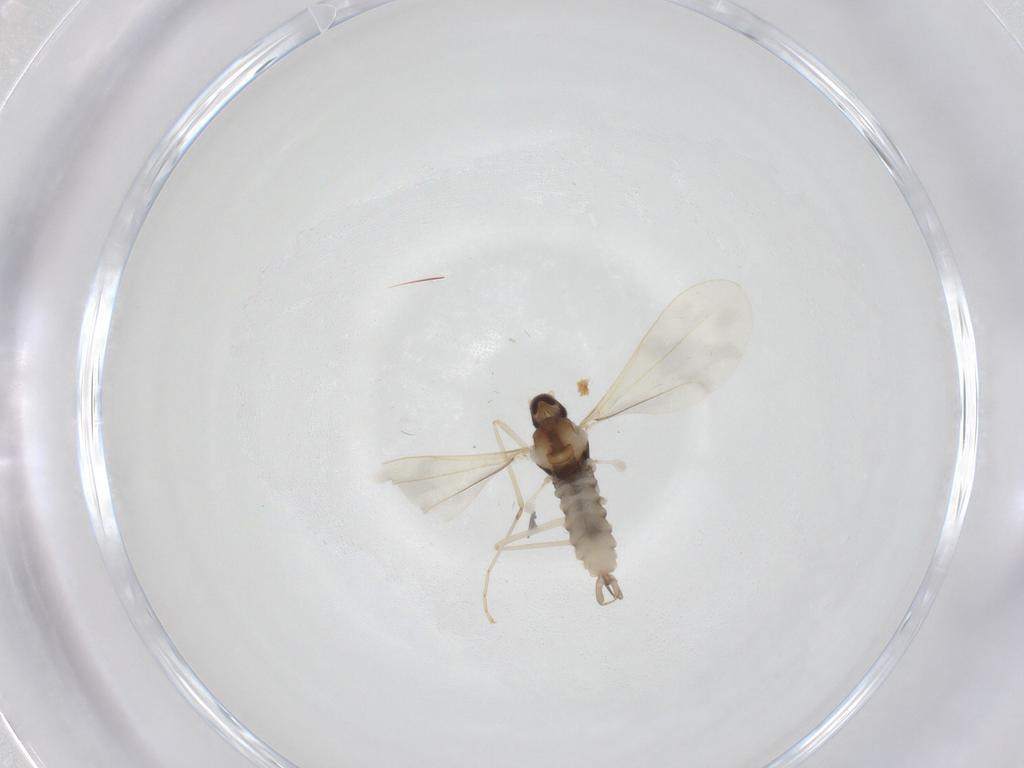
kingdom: Animalia
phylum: Arthropoda
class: Insecta
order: Diptera
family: Cecidomyiidae
